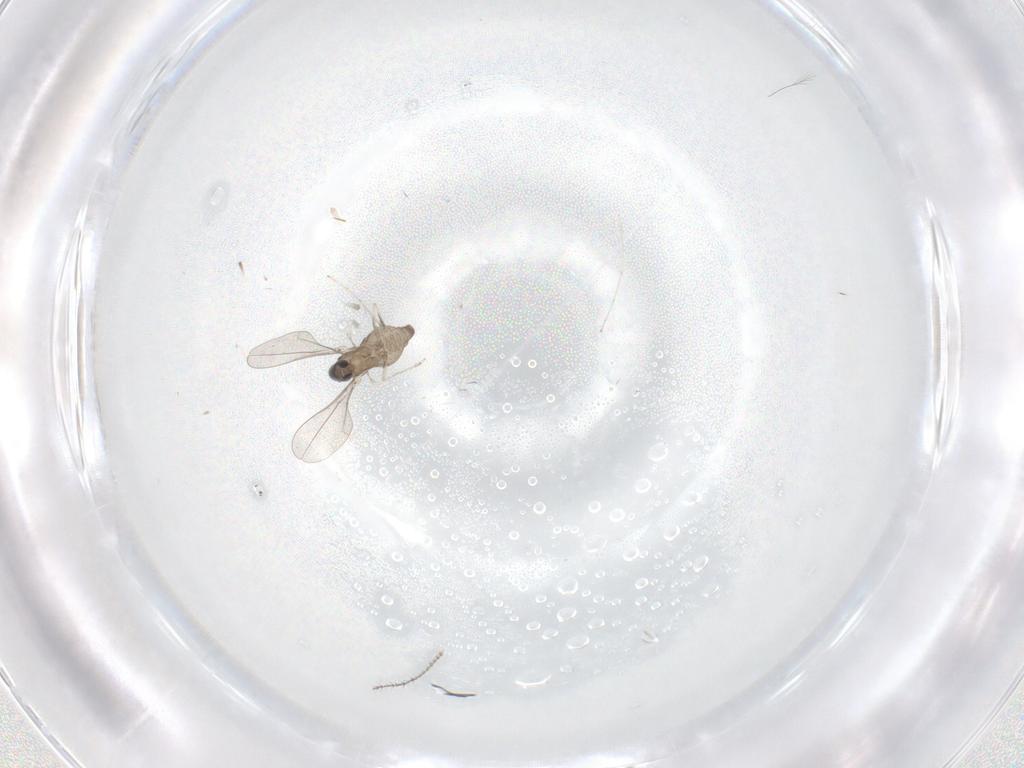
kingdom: Animalia
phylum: Arthropoda
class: Insecta
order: Diptera
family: Cecidomyiidae
